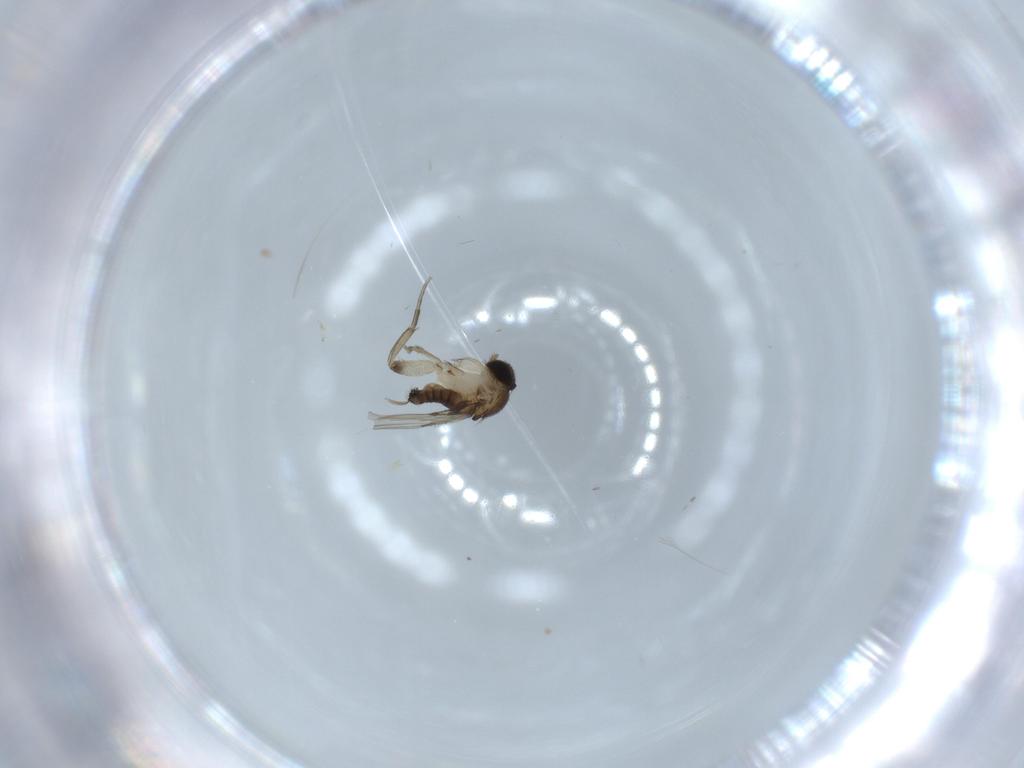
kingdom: Animalia
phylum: Arthropoda
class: Insecta
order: Diptera
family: Phoridae
